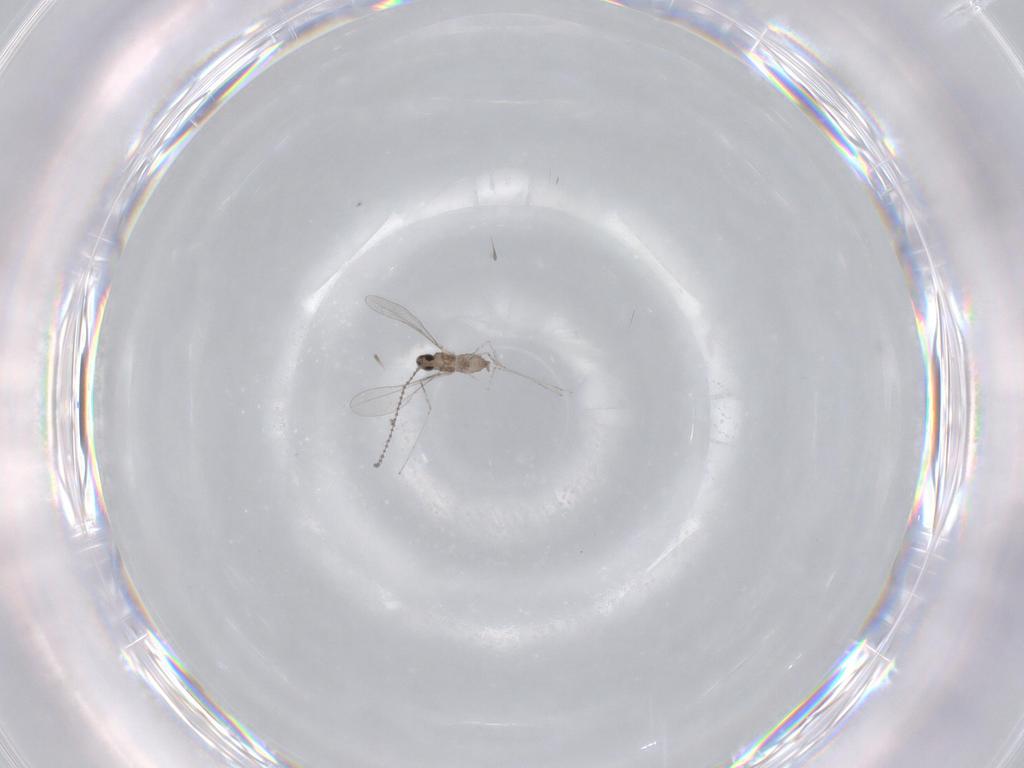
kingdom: Animalia
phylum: Arthropoda
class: Insecta
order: Diptera
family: Cecidomyiidae
